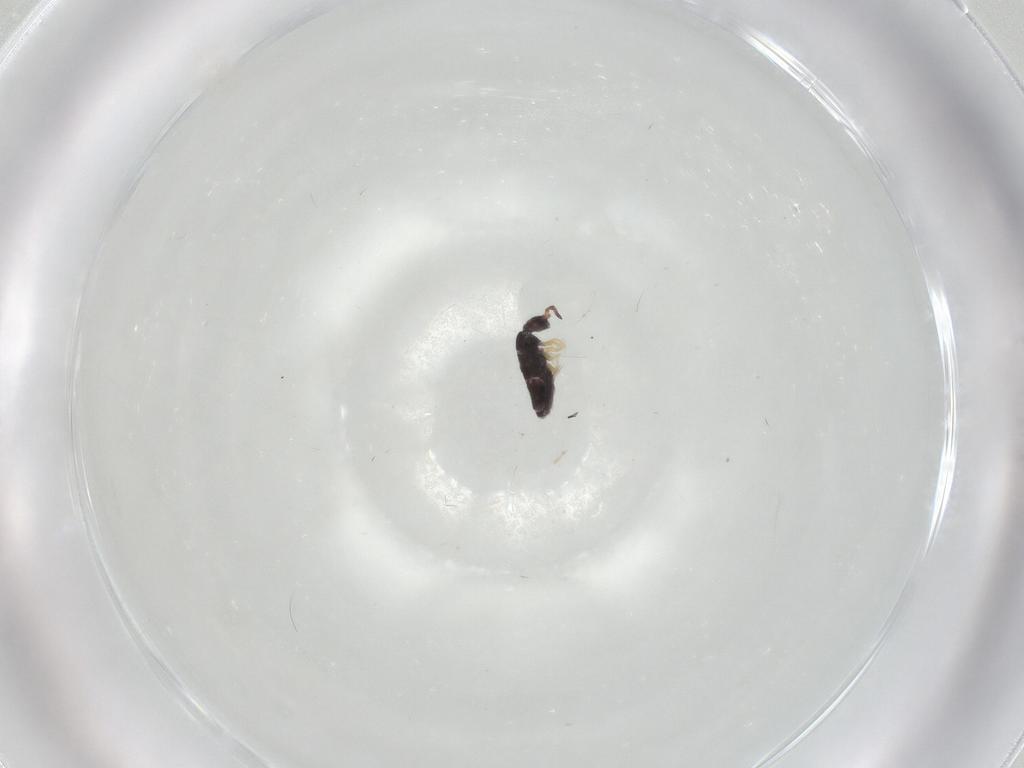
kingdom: Animalia
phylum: Arthropoda
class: Collembola
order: Entomobryomorpha
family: Entomobryidae
